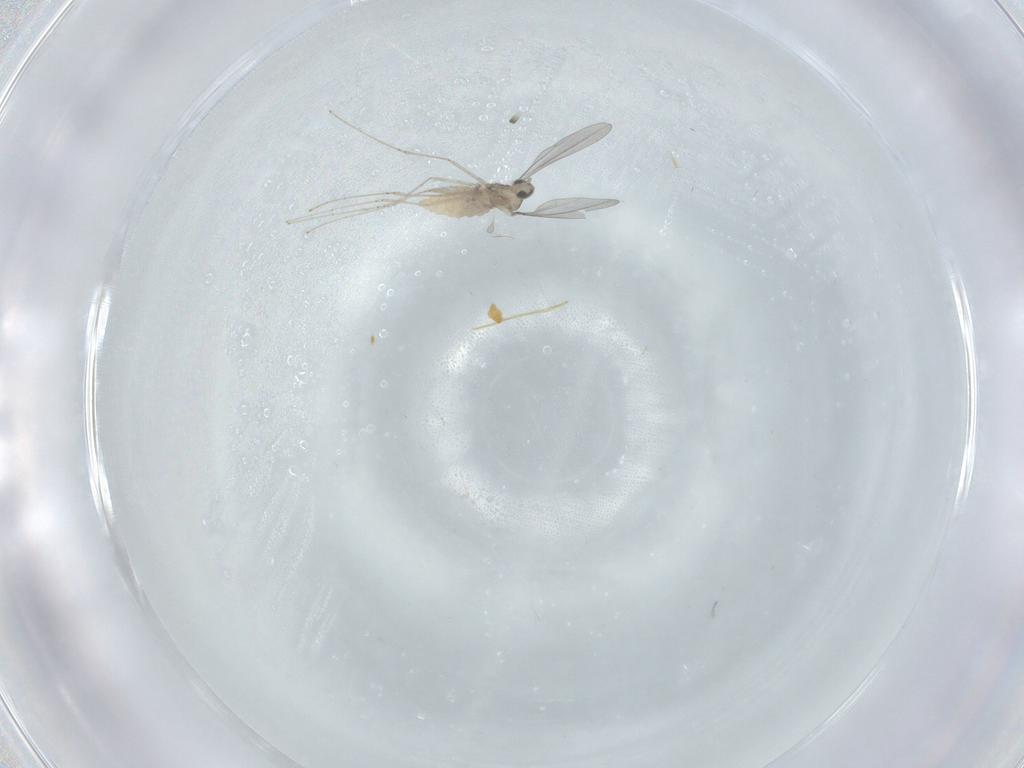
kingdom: Animalia
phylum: Arthropoda
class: Insecta
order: Diptera
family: Cecidomyiidae
